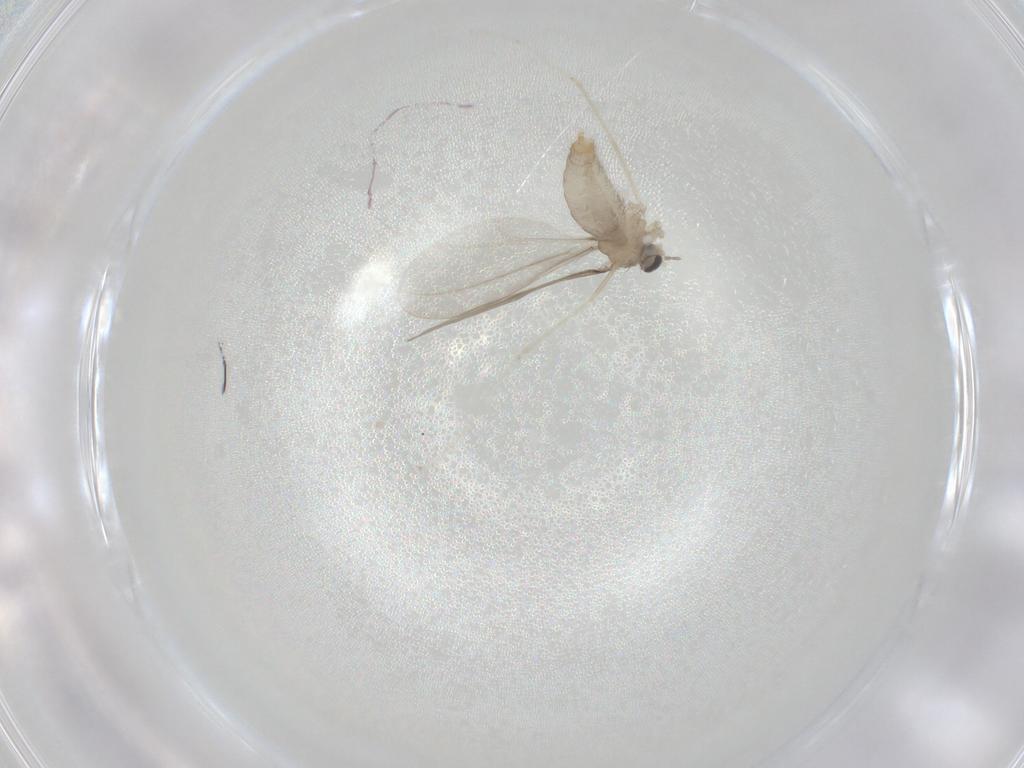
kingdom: Animalia
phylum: Arthropoda
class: Insecta
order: Diptera
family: Cecidomyiidae
